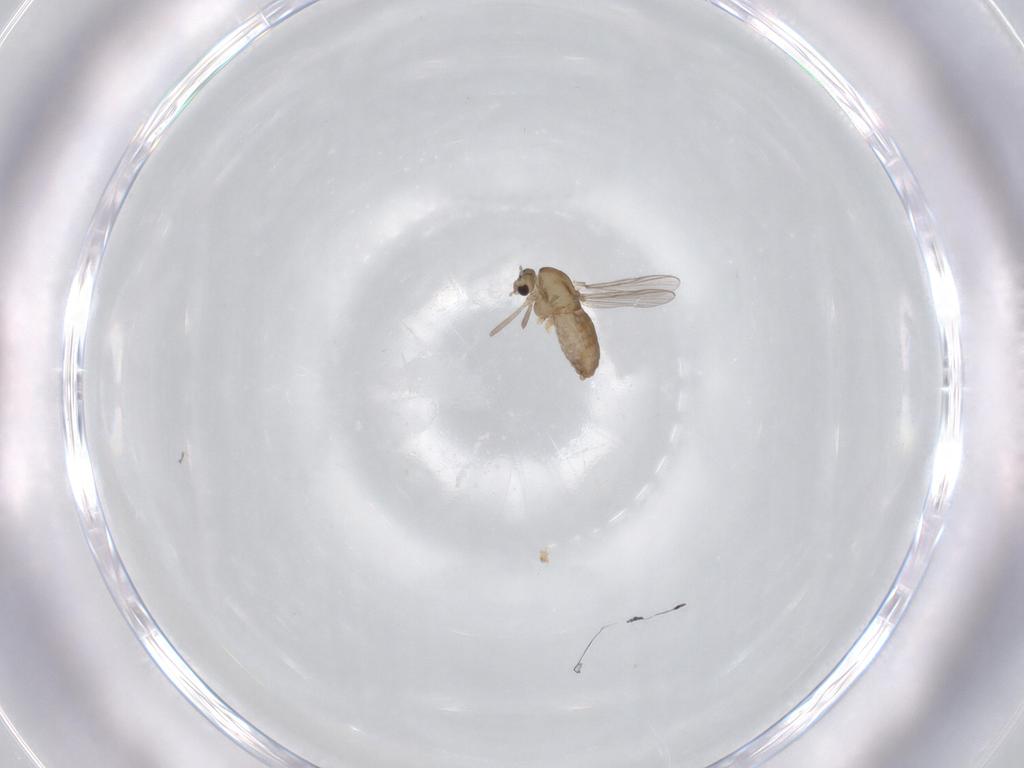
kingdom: Animalia
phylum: Arthropoda
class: Insecta
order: Diptera
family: Chironomidae
